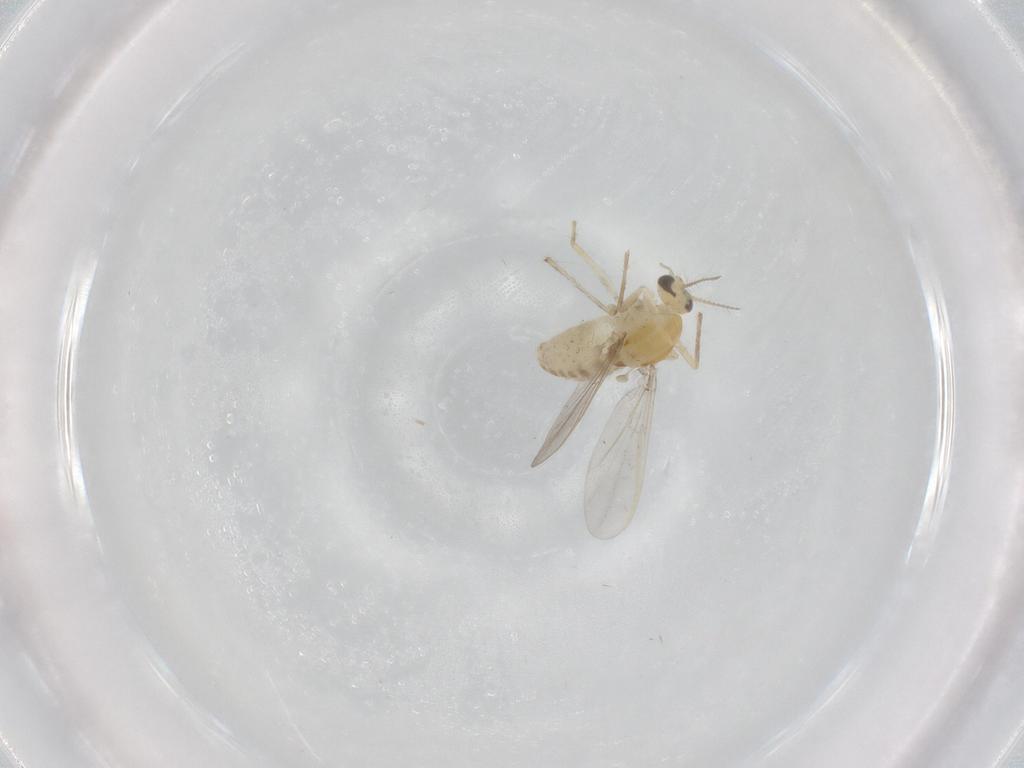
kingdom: Animalia
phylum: Arthropoda
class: Insecta
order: Diptera
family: Chironomidae
